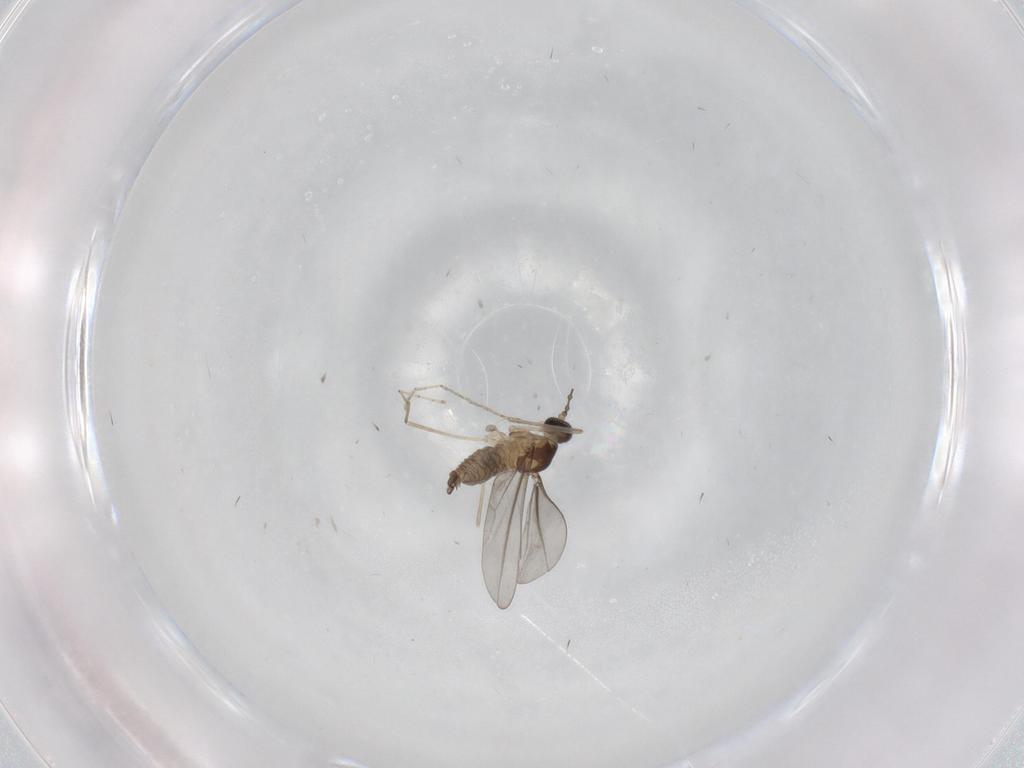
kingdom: Animalia
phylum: Arthropoda
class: Insecta
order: Diptera
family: Cecidomyiidae
